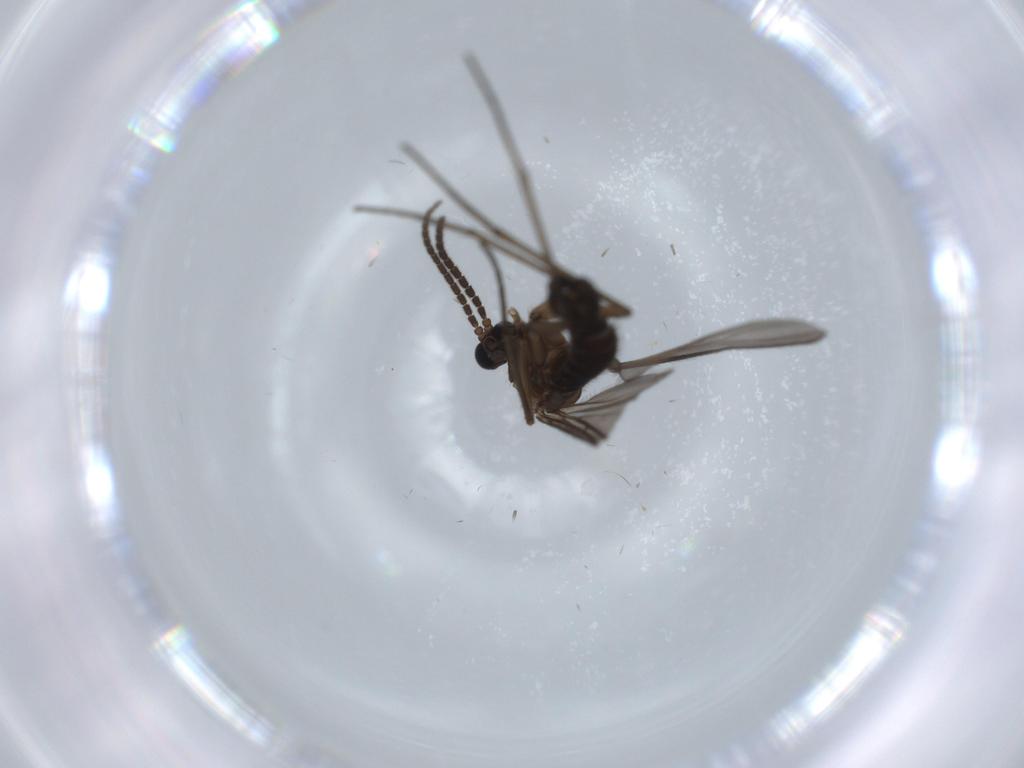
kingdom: Animalia
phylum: Arthropoda
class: Insecta
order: Diptera
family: Sciaridae
